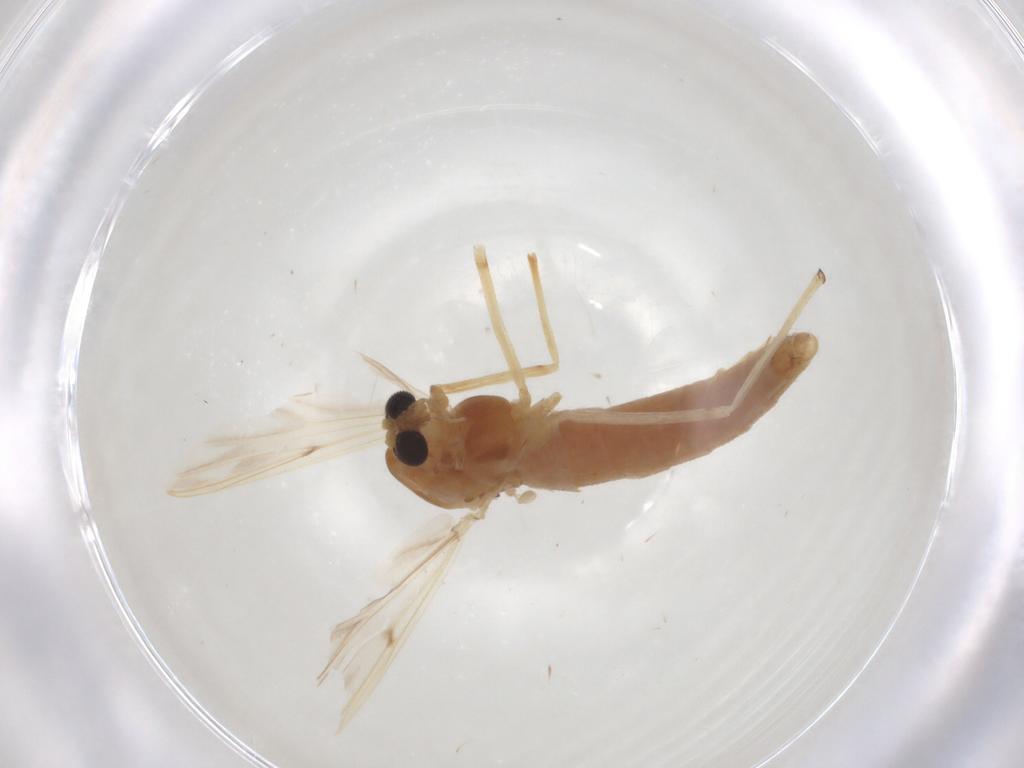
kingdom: Animalia
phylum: Arthropoda
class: Insecta
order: Diptera
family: Chironomidae
